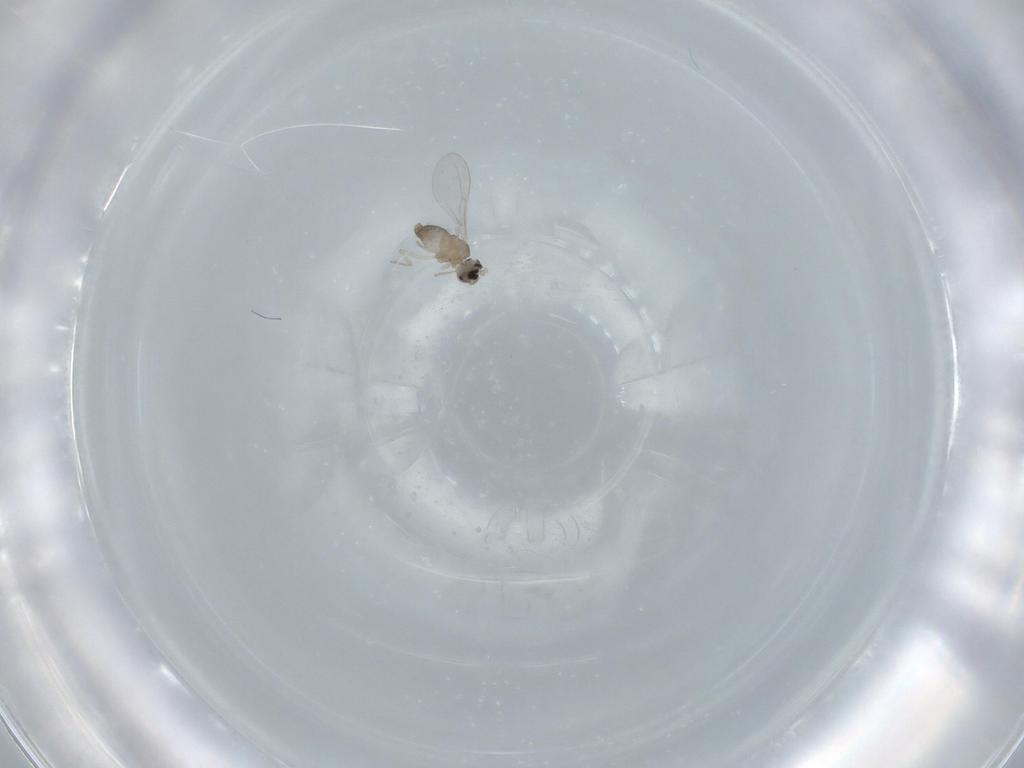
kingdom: Animalia
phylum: Arthropoda
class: Insecta
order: Diptera
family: Cecidomyiidae
